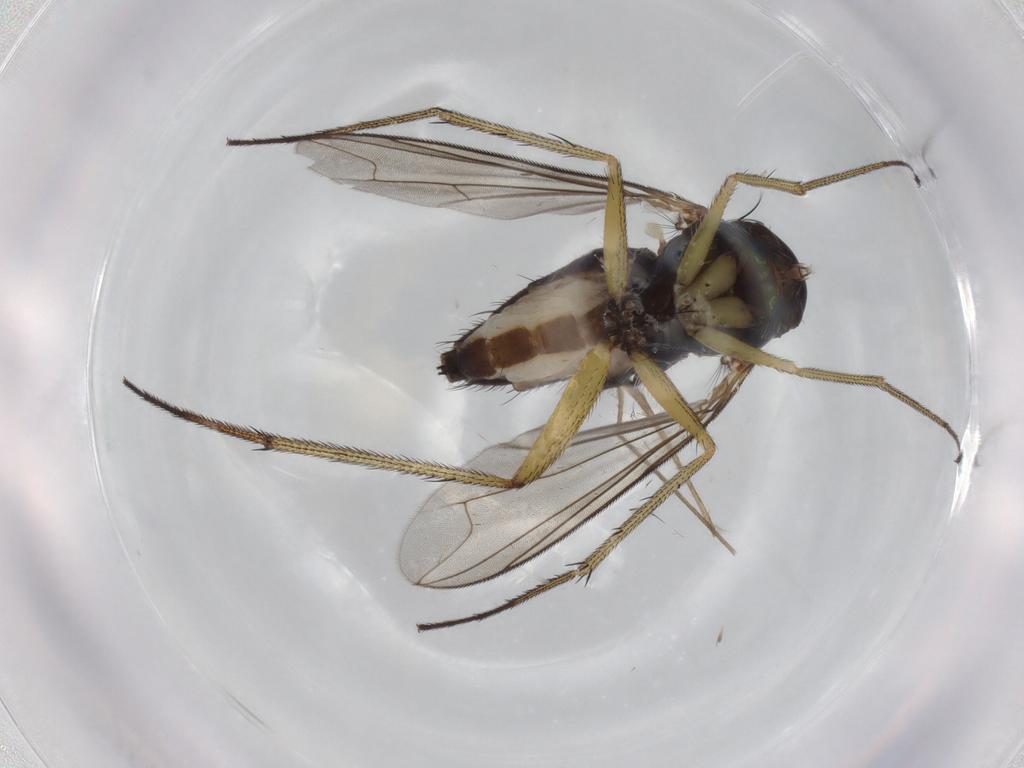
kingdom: Animalia
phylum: Arthropoda
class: Insecta
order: Diptera
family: Dolichopodidae
